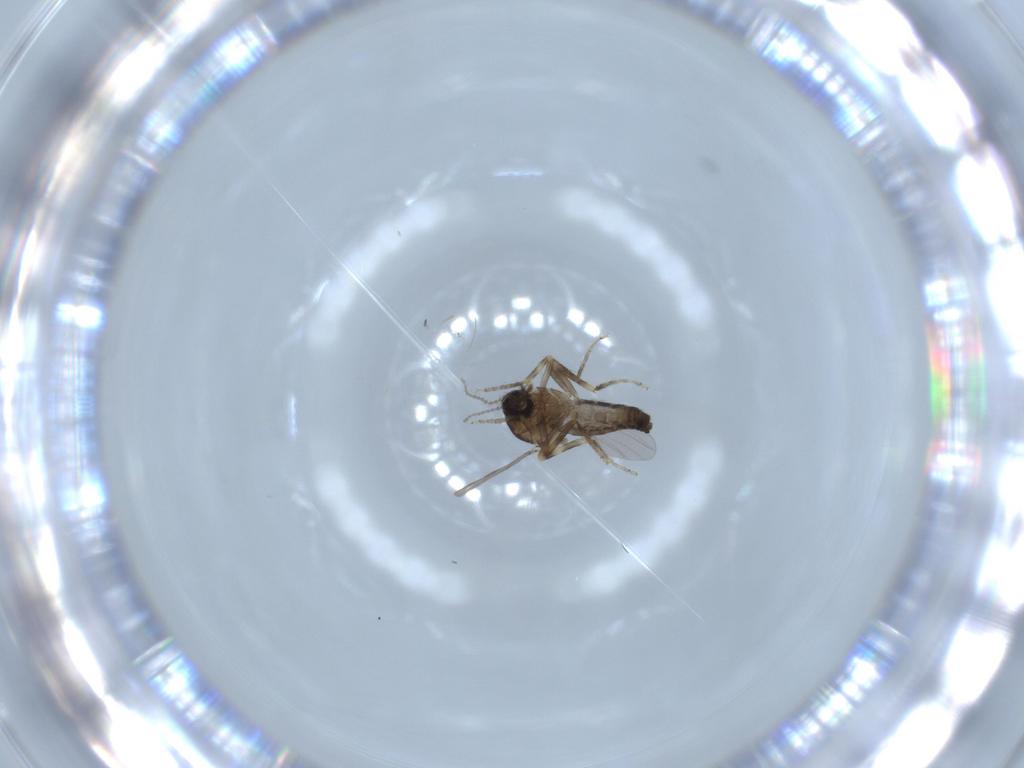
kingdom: Animalia
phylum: Arthropoda
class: Insecta
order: Diptera
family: Ceratopogonidae
